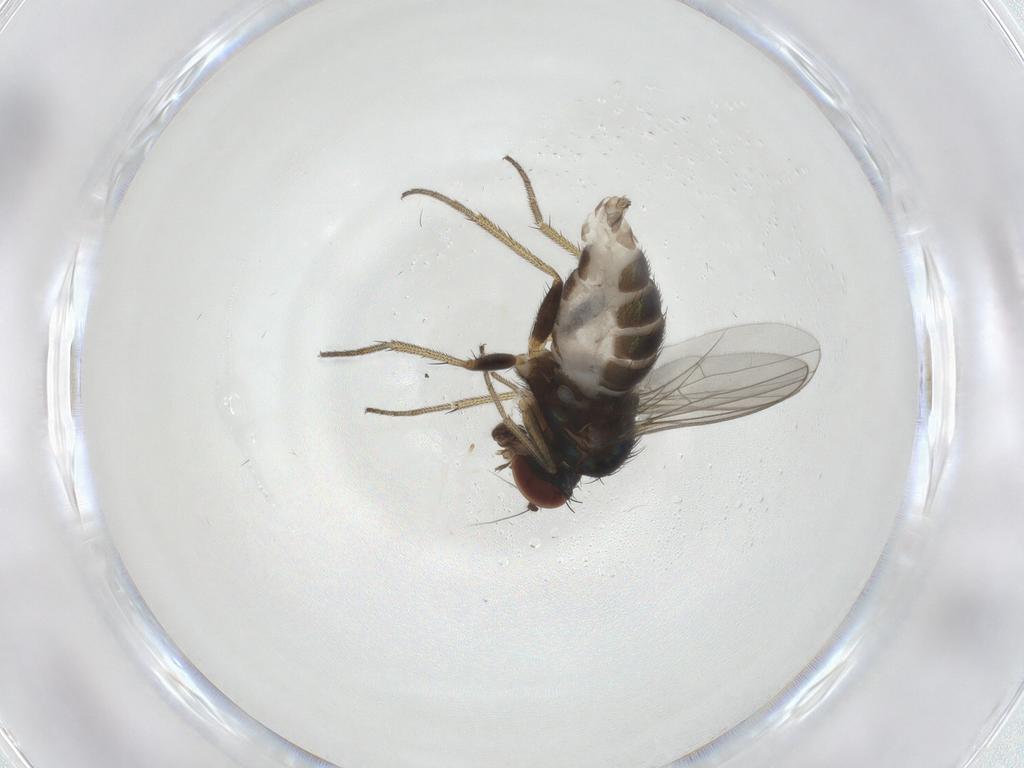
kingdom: Animalia
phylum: Arthropoda
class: Insecta
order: Diptera
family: Dolichopodidae
